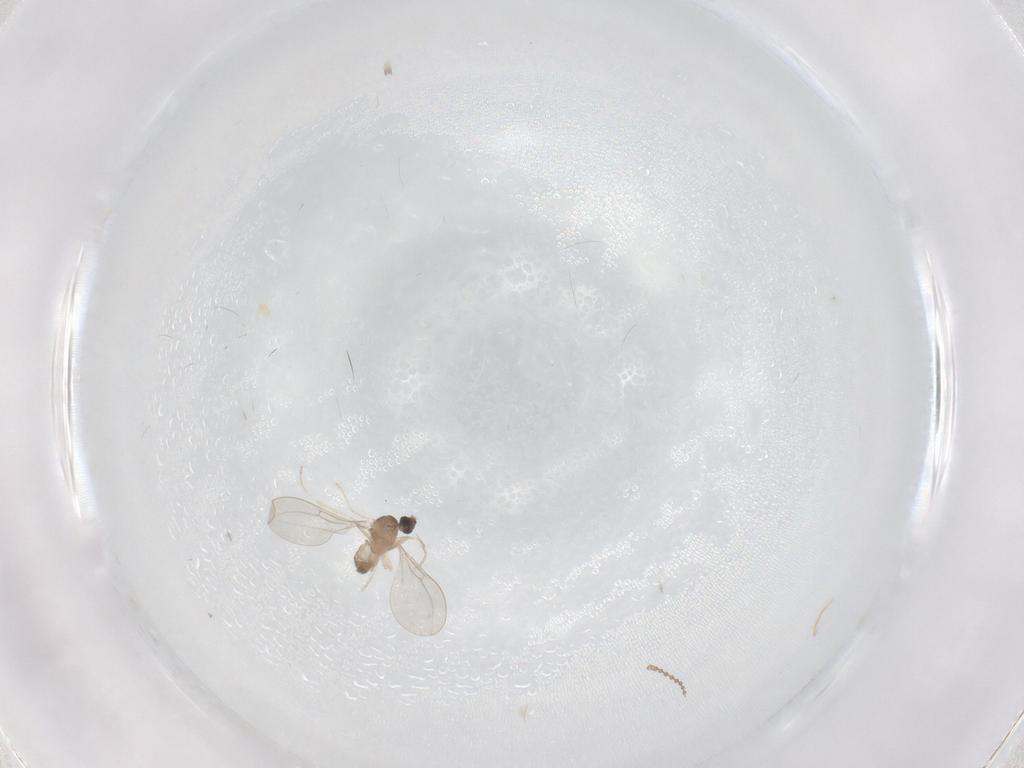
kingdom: Animalia
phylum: Arthropoda
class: Insecta
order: Diptera
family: Cecidomyiidae
